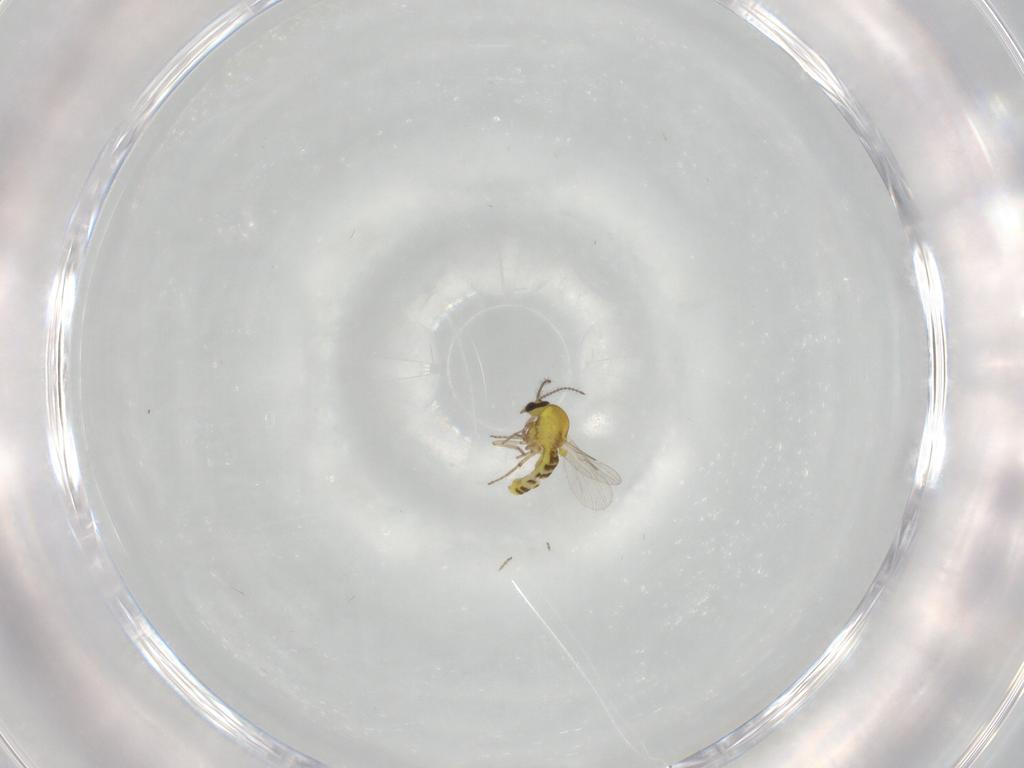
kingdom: Animalia
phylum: Arthropoda
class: Insecta
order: Diptera
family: Ceratopogonidae
